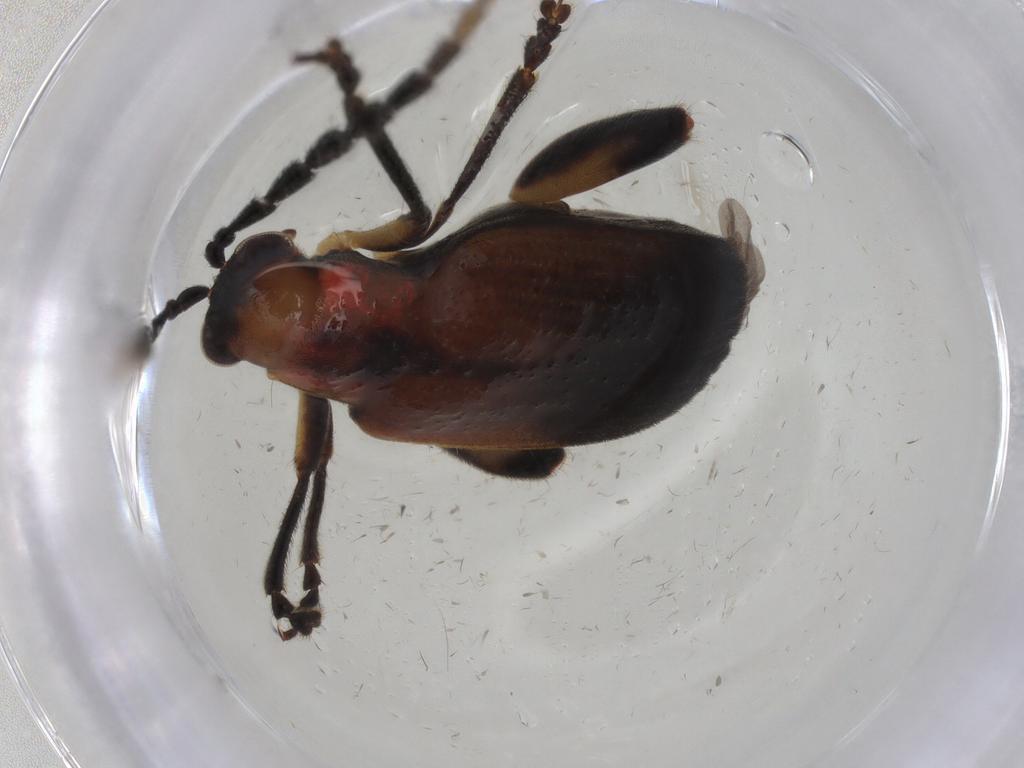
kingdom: Animalia
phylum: Arthropoda
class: Insecta
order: Coleoptera
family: Chrysomelidae
